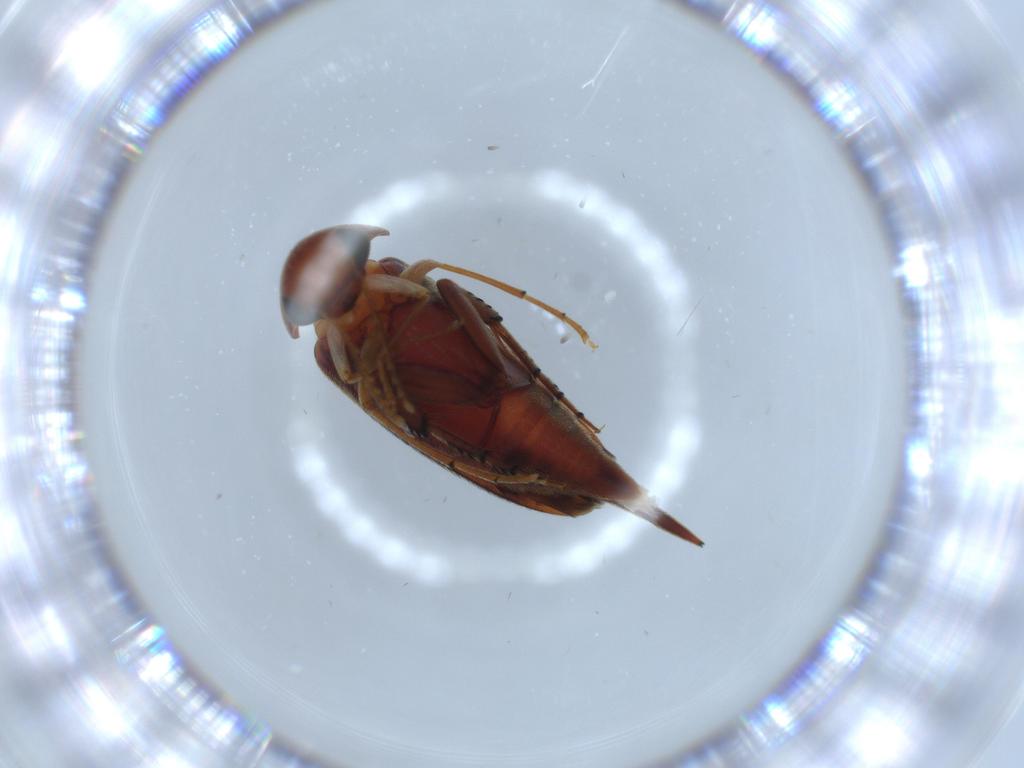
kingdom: Animalia
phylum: Arthropoda
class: Insecta
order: Coleoptera
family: Chrysomelidae
